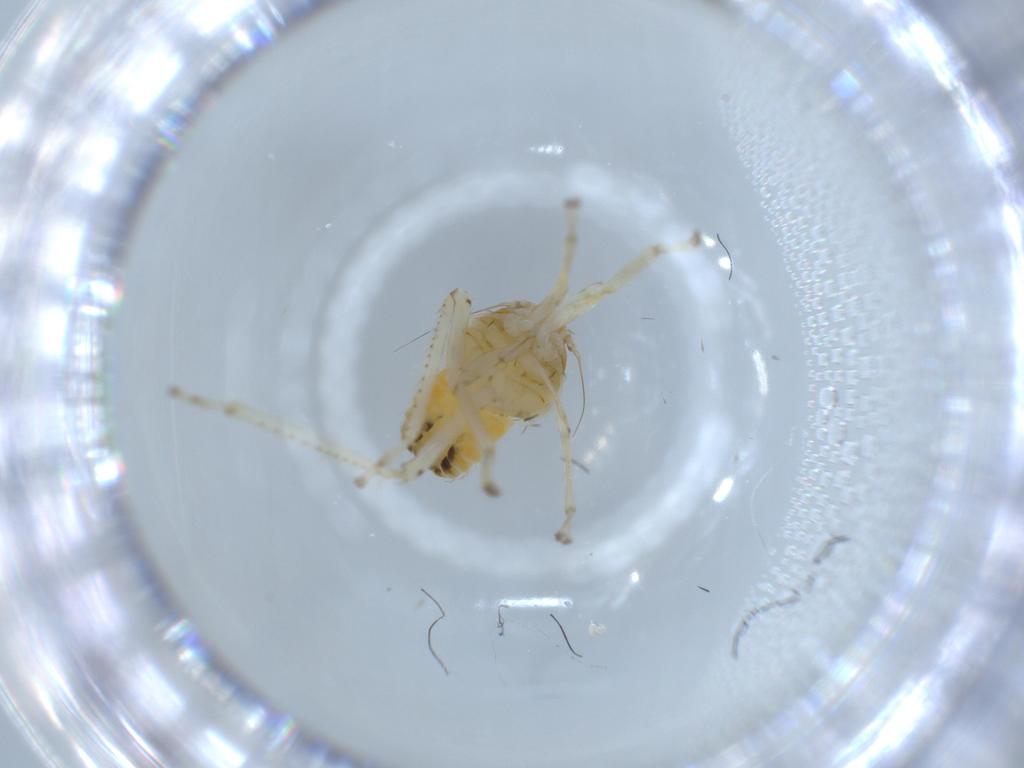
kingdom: Animalia
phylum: Arthropoda
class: Insecta
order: Hemiptera
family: Cicadellidae
